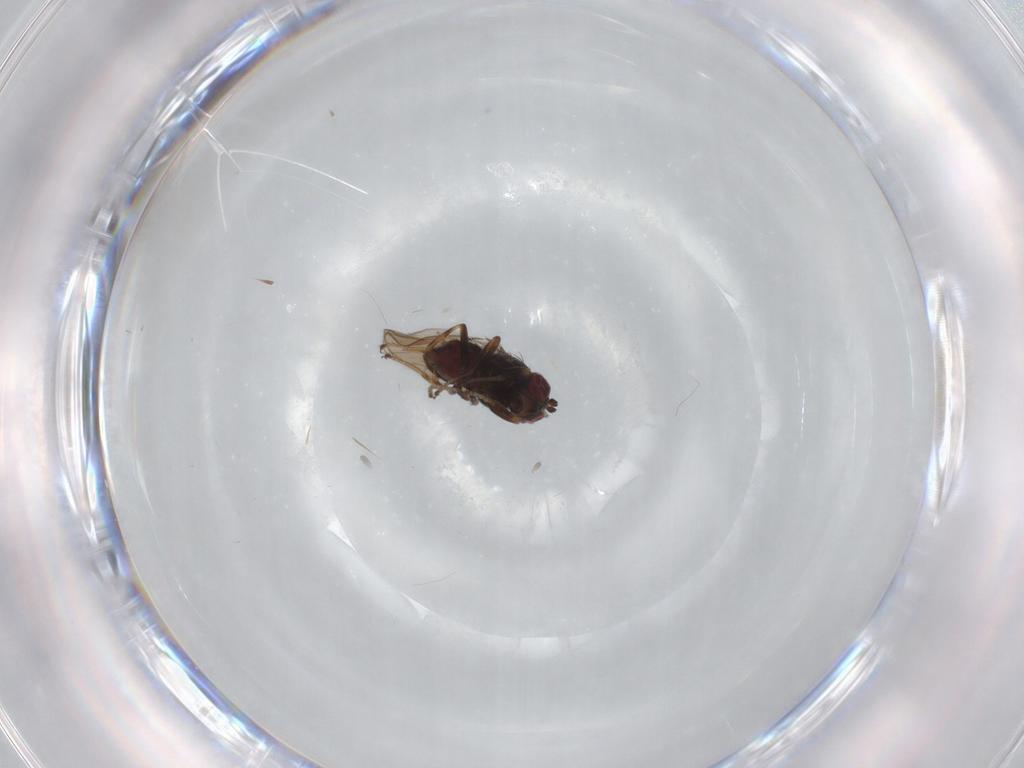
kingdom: Animalia
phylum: Arthropoda
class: Insecta
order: Diptera
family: Ephydridae
